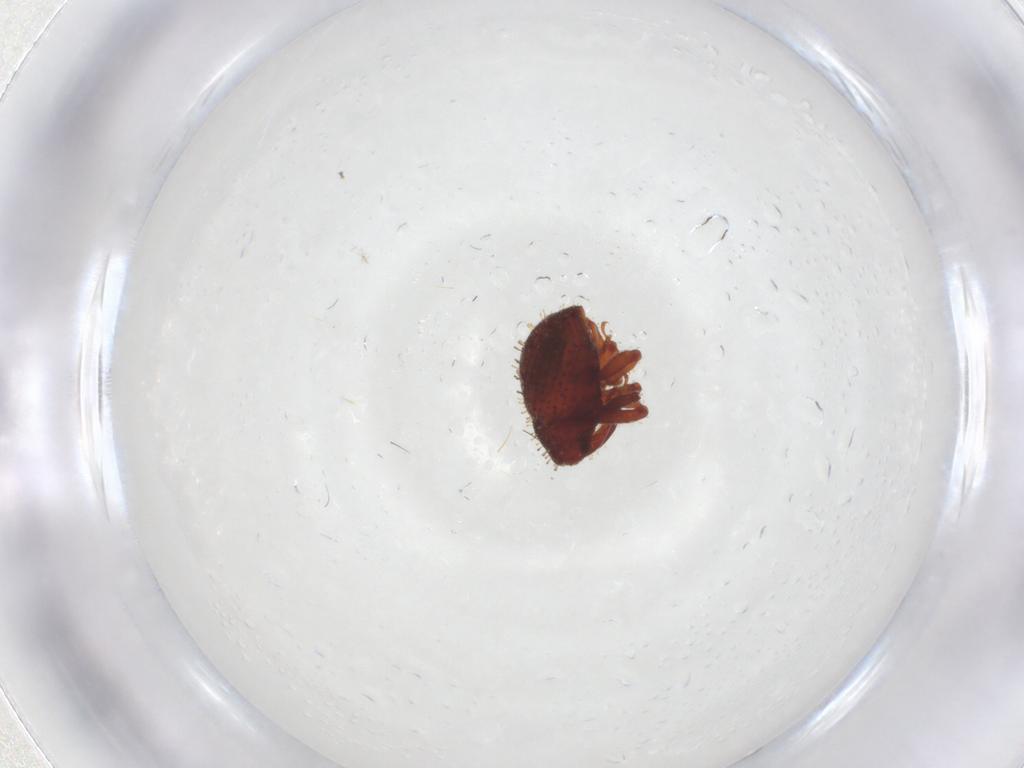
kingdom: Animalia
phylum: Arthropoda
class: Insecta
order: Coleoptera
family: Curculionidae
